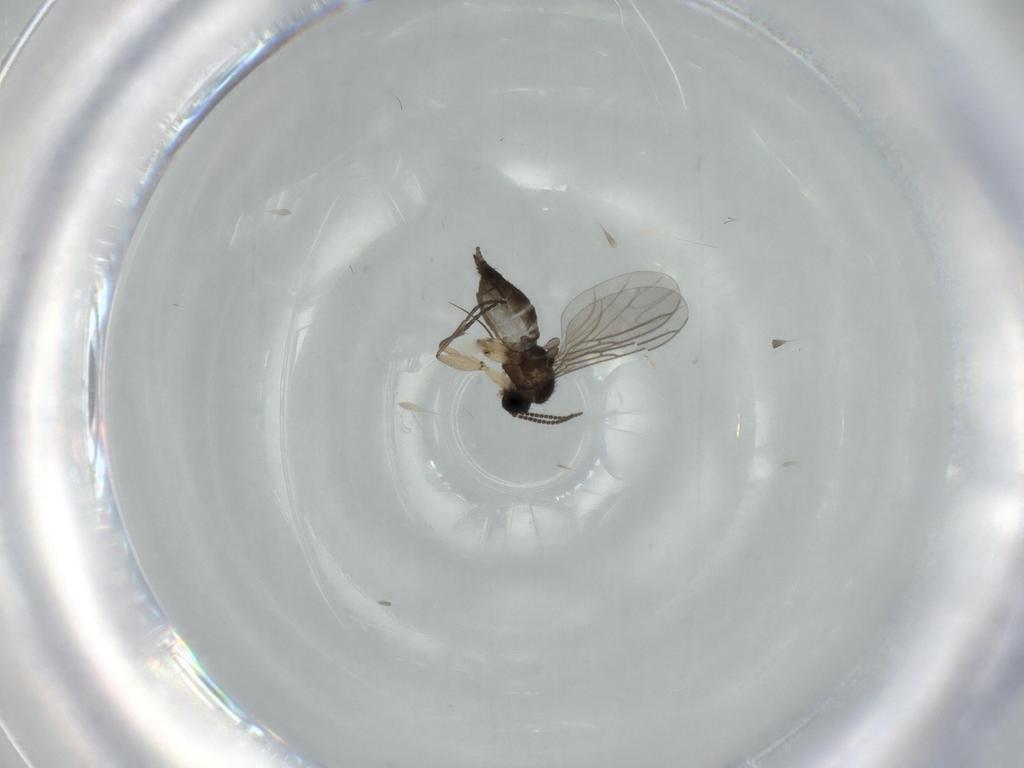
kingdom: Animalia
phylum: Arthropoda
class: Insecta
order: Diptera
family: Sciaridae
